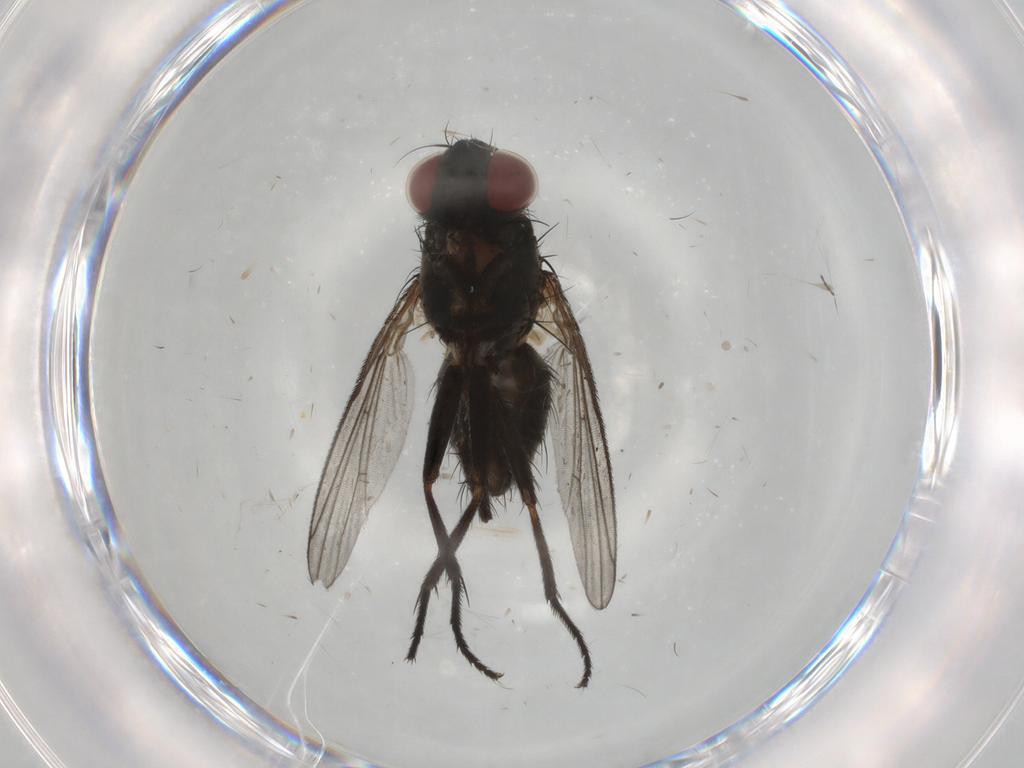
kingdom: Animalia
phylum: Arthropoda
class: Insecta
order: Diptera
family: Muscidae
